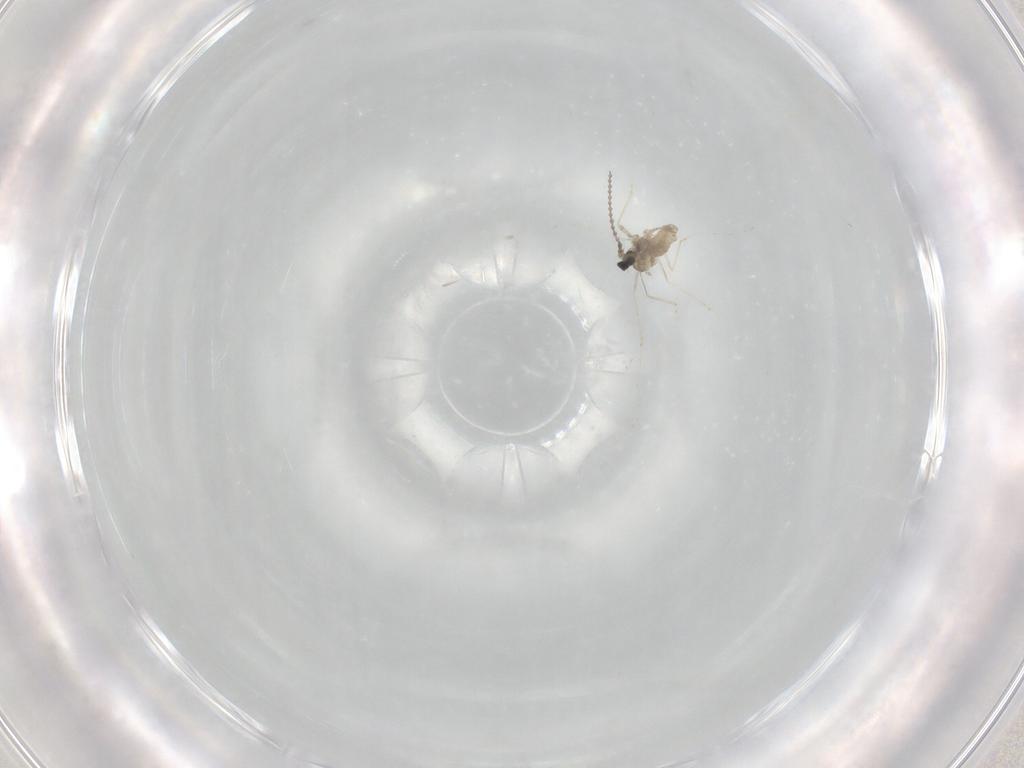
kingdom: Animalia
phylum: Arthropoda
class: Insecta
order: Diptera
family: Cecidomyiidae
